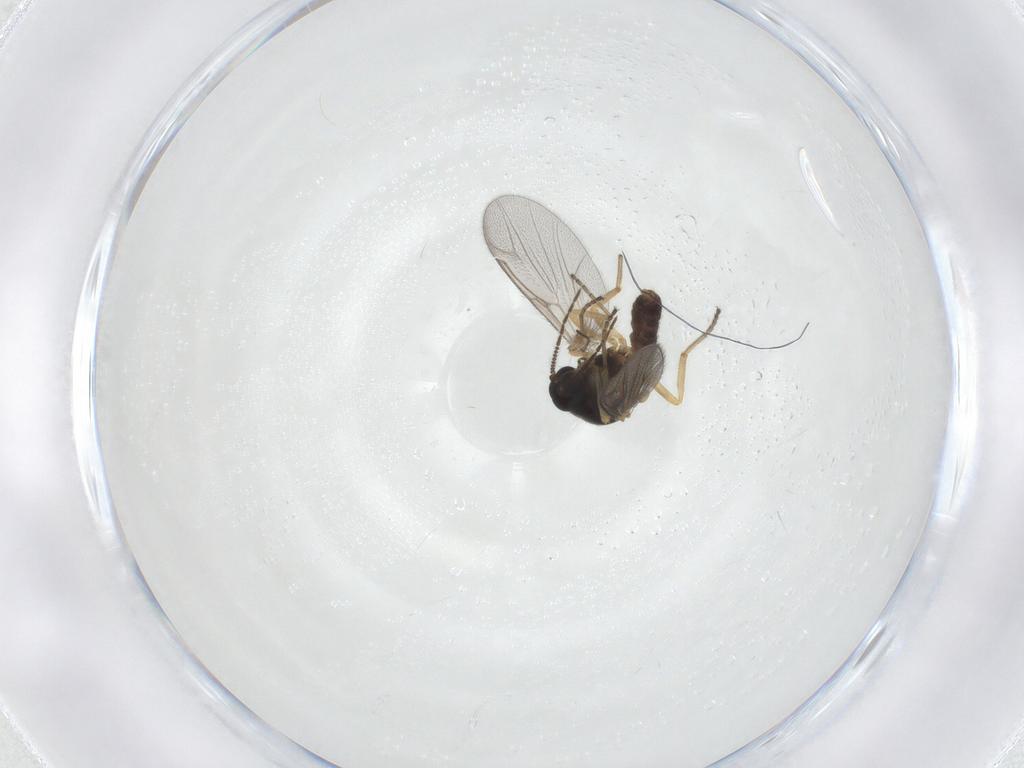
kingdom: Animalia
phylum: Arthropoda
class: Insecta
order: Diptera
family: Ceratopogonidae
